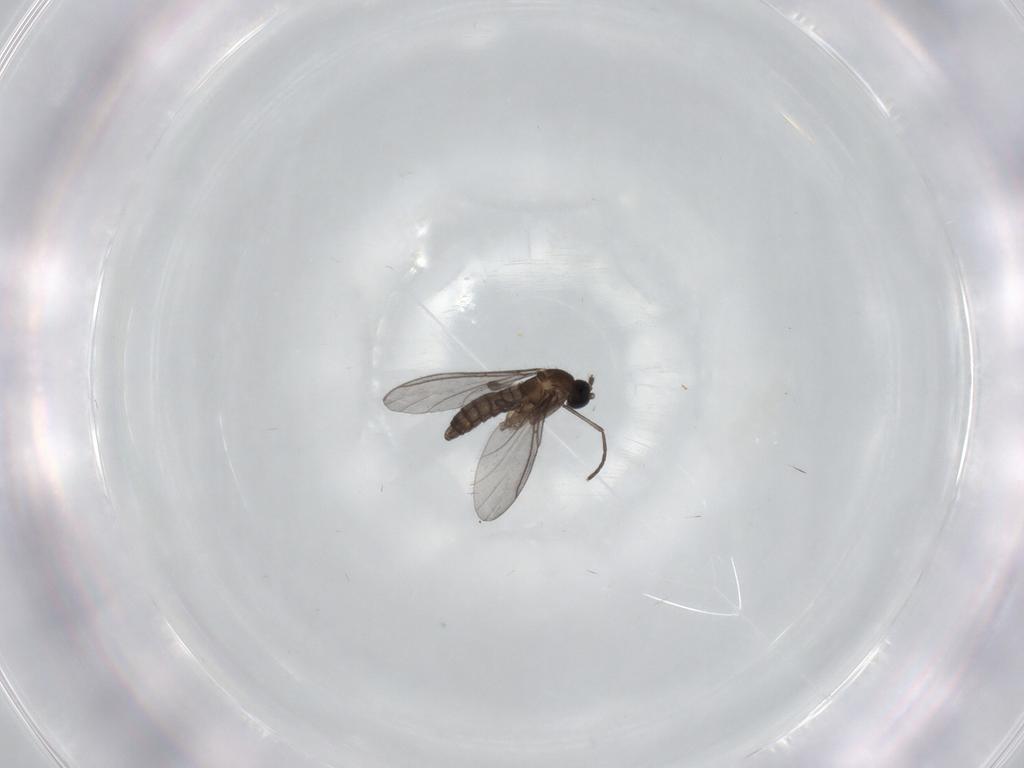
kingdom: Animalia
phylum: Arthropoda
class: Insecta
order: Diptera
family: Psychodidae
